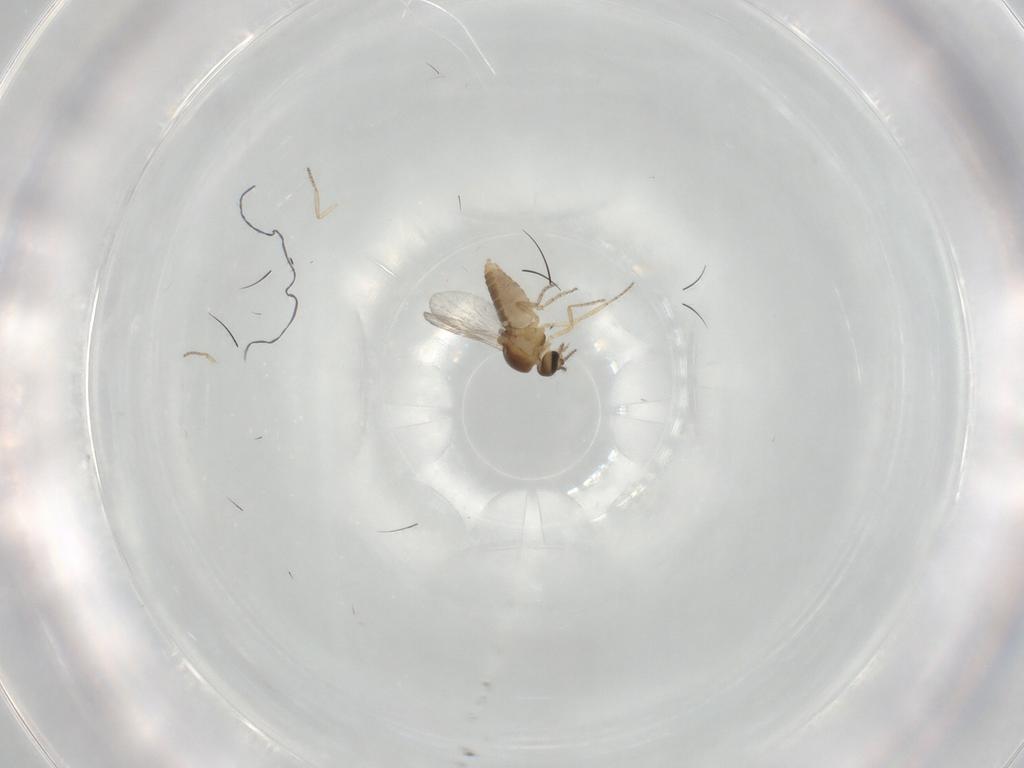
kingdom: Animalia
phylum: Arthropoda
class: Insecta
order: Diptera
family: Ceratopogonidae
